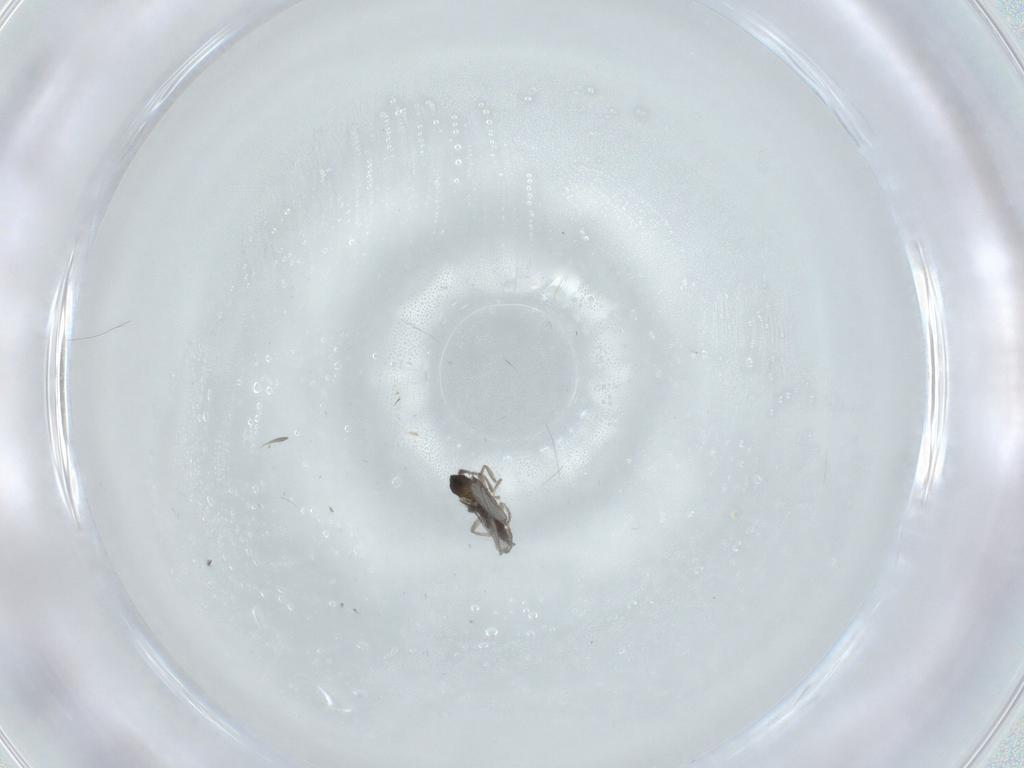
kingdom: Animalia
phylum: Arthropoda
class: Insecta
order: Diptera
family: Cecidomyiidae
